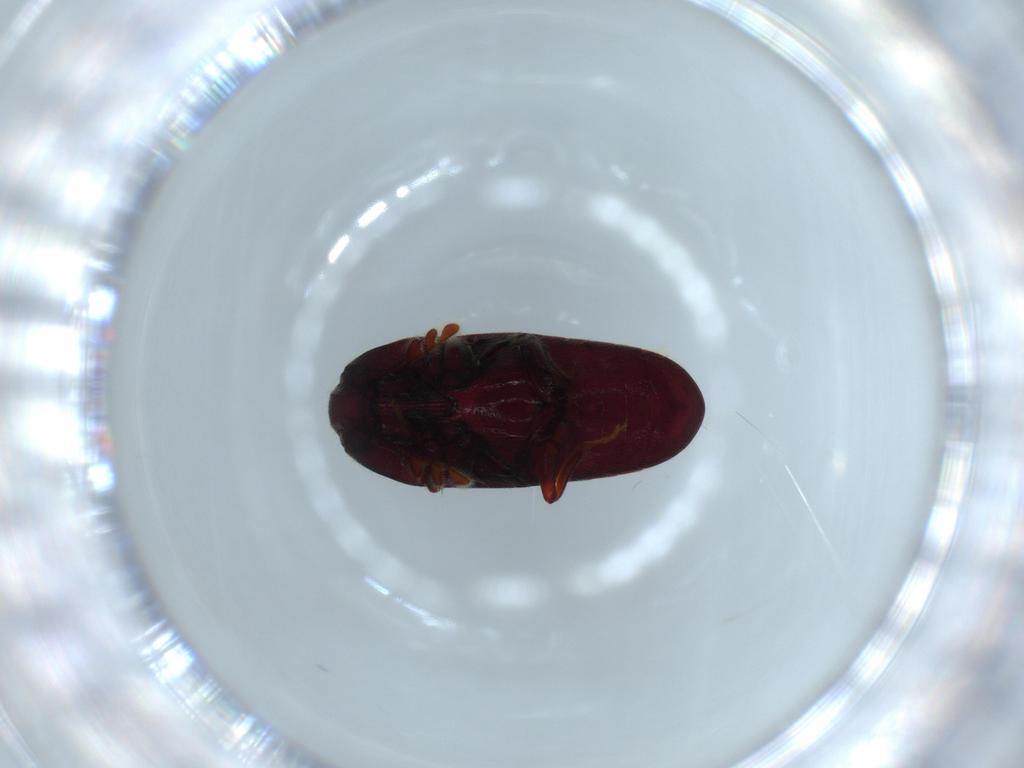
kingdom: Animalia
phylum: Arthropoda
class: Insecta
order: Coleoptera
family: Throscidae
